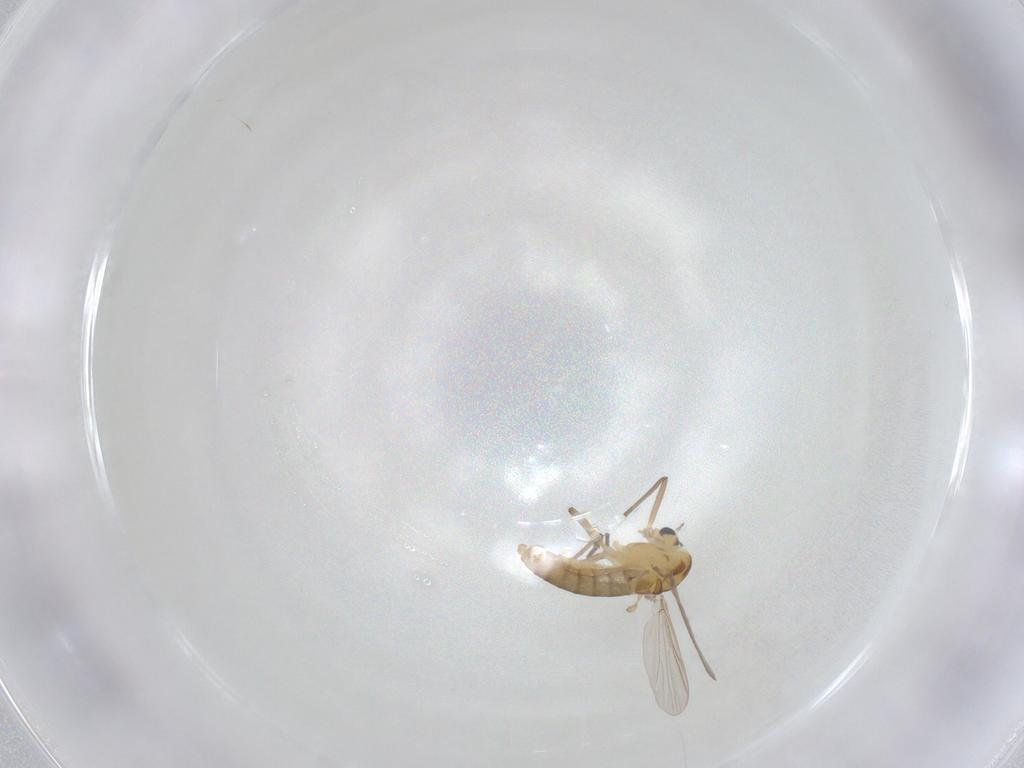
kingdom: Animalia
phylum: Arthropoda
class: Insecta
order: Diptera
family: Chironomidae
